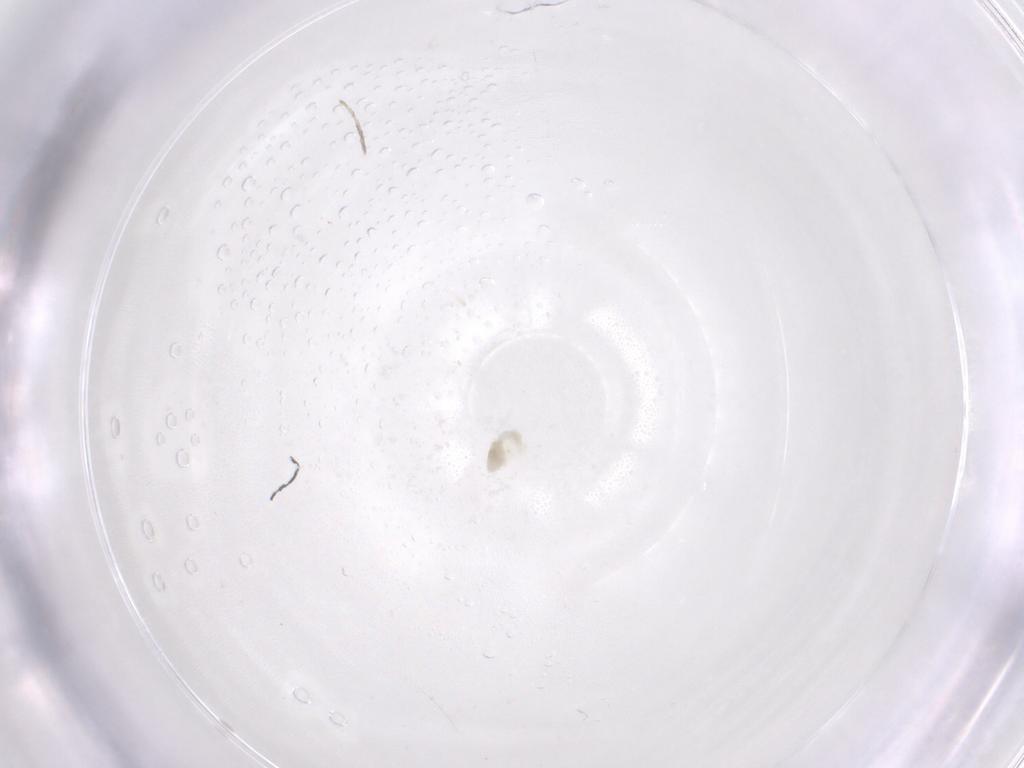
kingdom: Animalia
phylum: Arthropoda
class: Arachnida
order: Trombidiformes
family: Eupodidae
